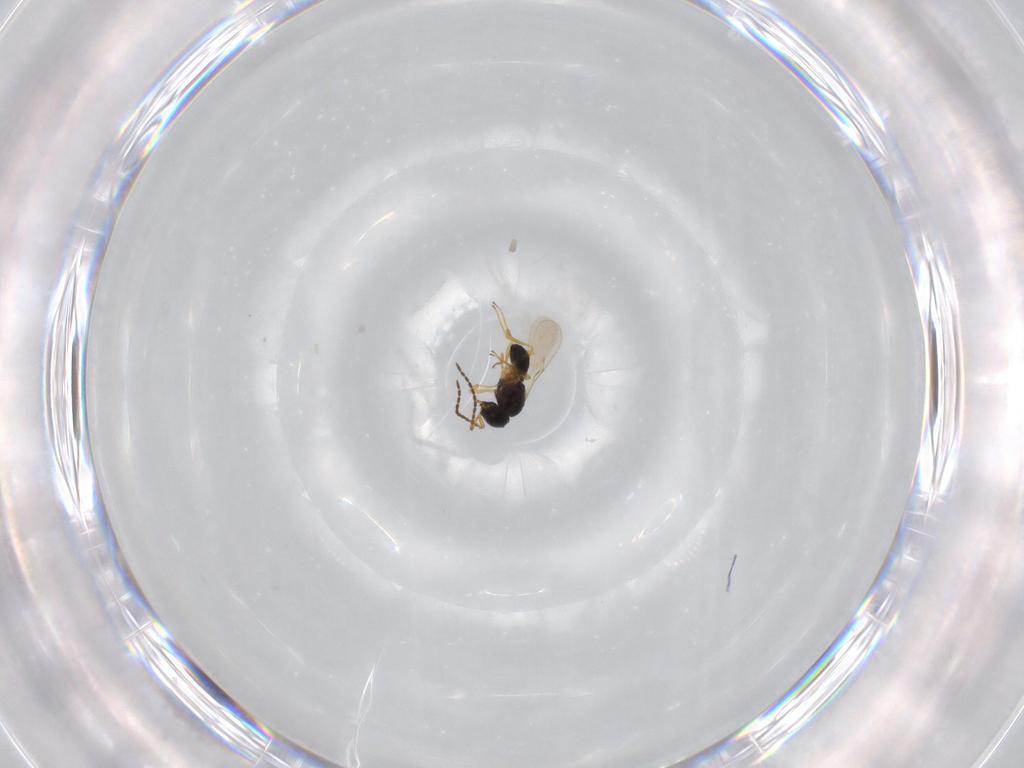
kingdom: Animalia
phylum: Arthropoda
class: Insecta
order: Hymenoptera
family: Scelionidae
